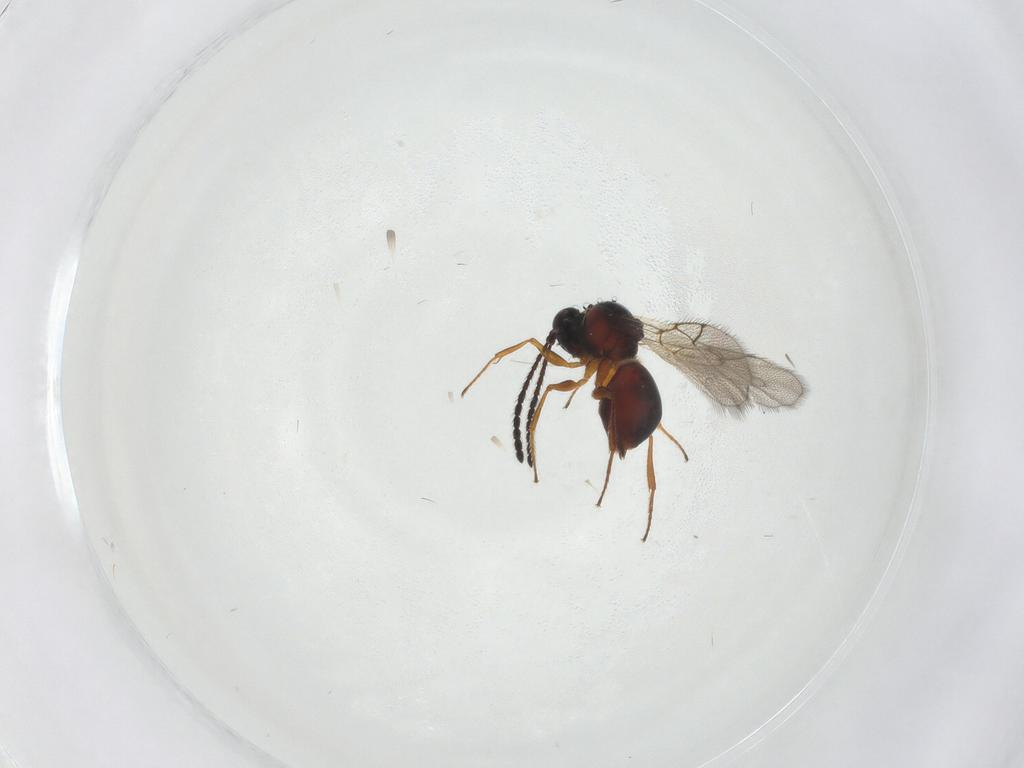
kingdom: Animalia
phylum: Arthropoda
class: Insecta
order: Hymenoptera
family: Figitidae
